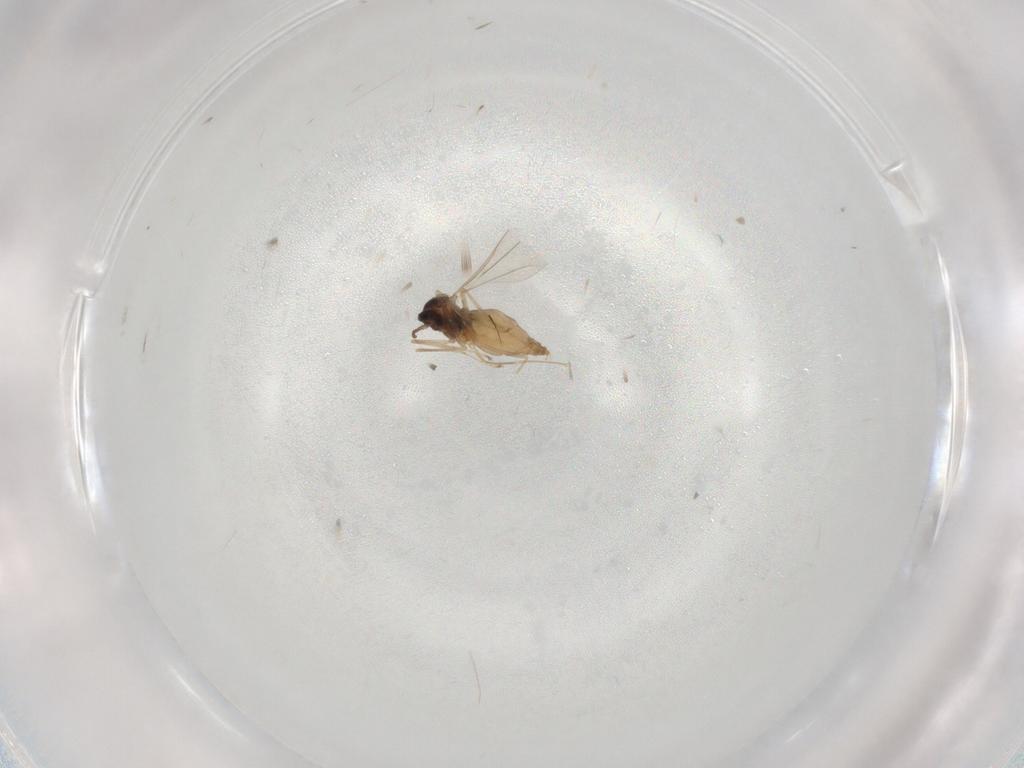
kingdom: Animalia
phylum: Arthropoda
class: Insecta
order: Diptera
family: Cecidomyiidae
